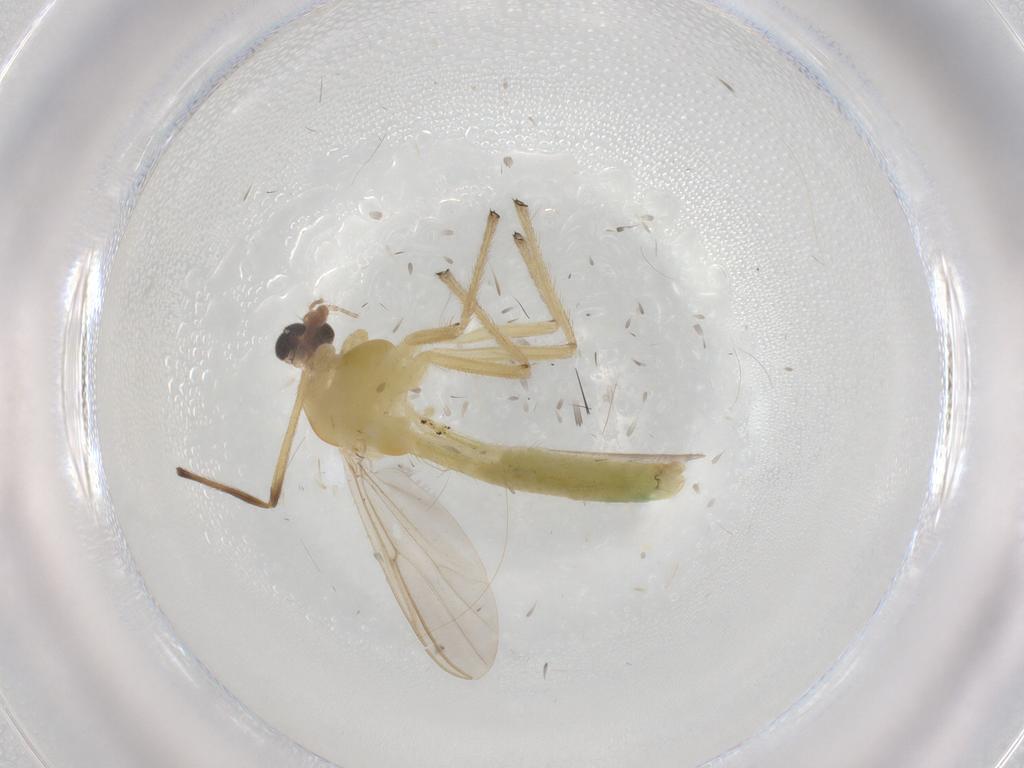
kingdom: Animalia
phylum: Arthropoda
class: Insecta
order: Diptera
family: Chironomidae
